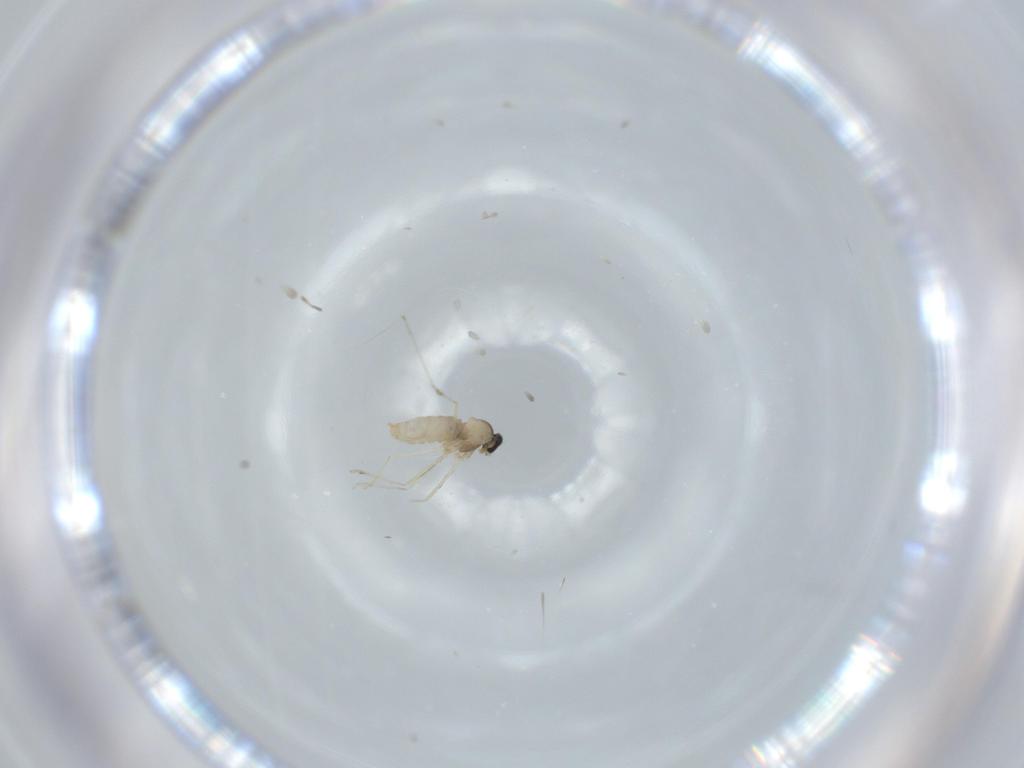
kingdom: Animalia
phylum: Arthropoda
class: Insecta
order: Diptera
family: Cecidomyiidae
